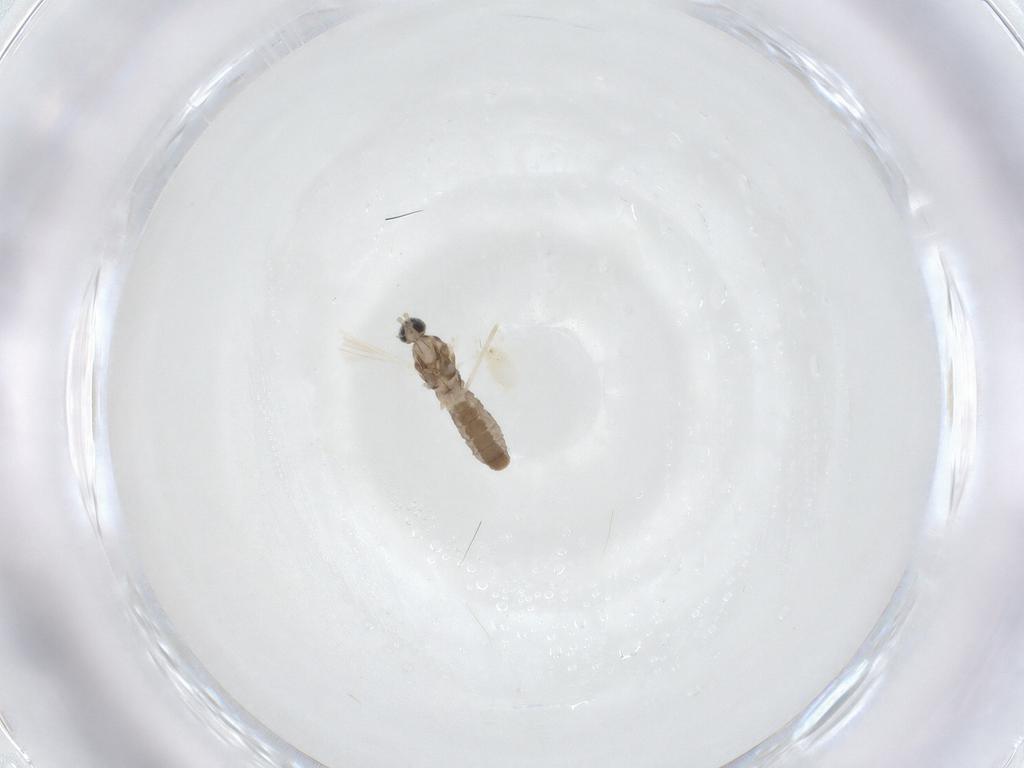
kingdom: Animalia
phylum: Arthropoda
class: Insecta
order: Diptera
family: Cecidomyiidae
